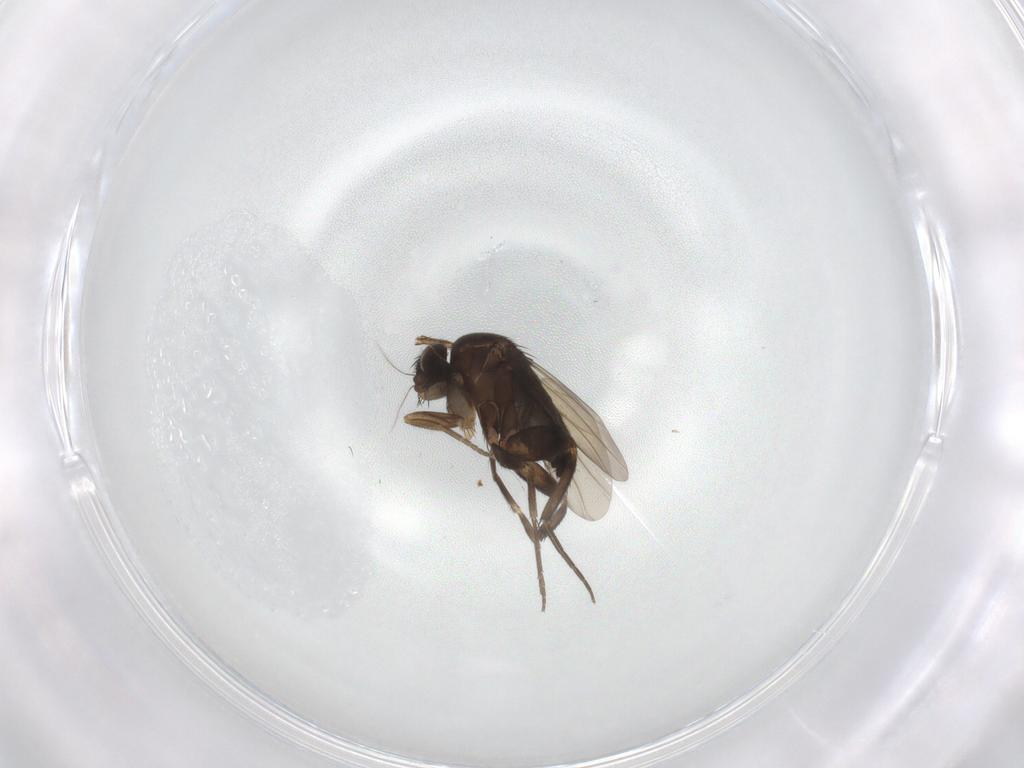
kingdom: Animalia
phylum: Arthropoda
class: Insecta
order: Diptera
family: Phoridae
